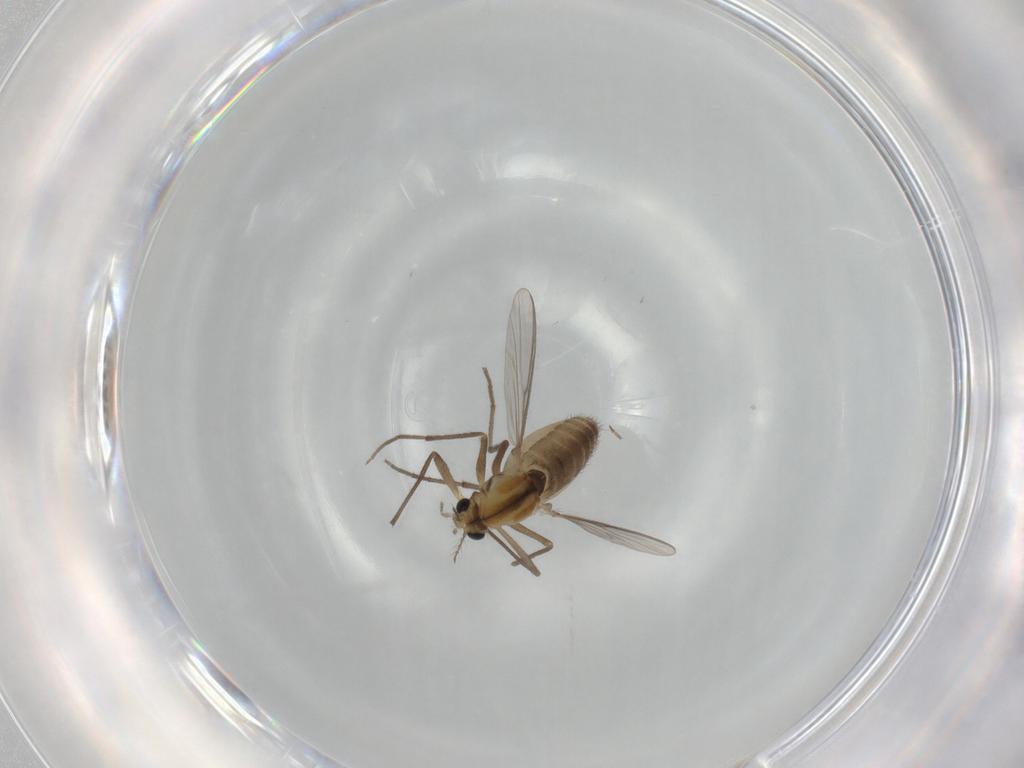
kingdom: Animalia
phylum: Arthropoda
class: Insecta
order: Diptera
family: Chironomidae
